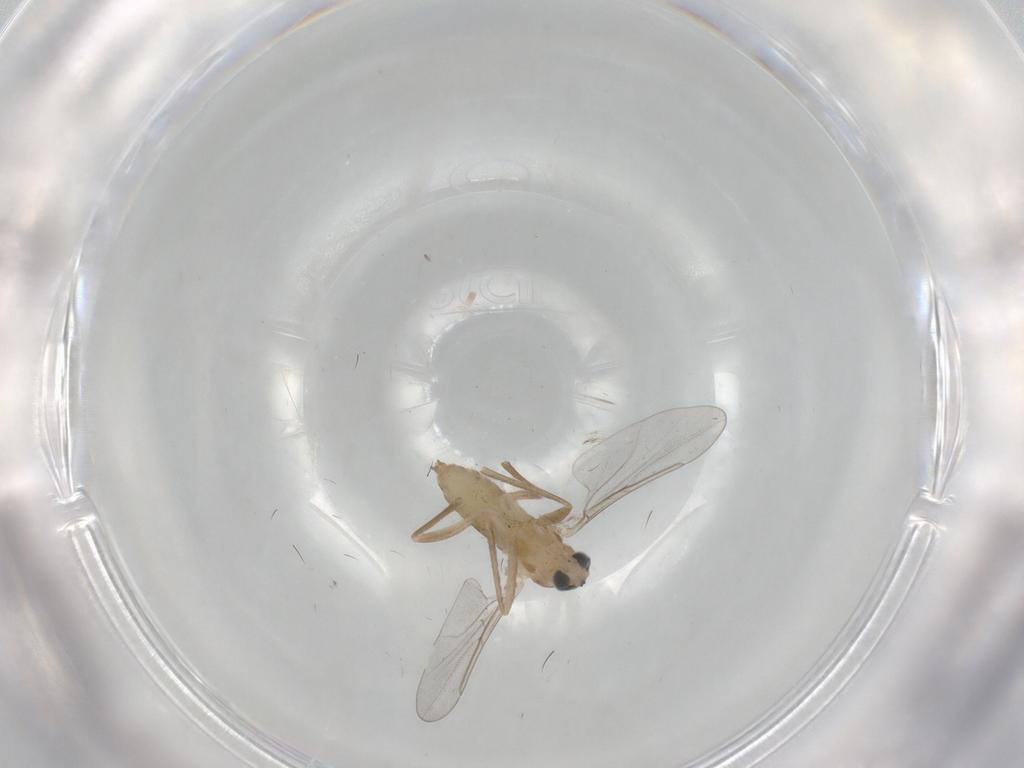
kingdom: Animalia
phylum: Arthropoda
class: Insecta
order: Diptera
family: Cecidomyiidae
